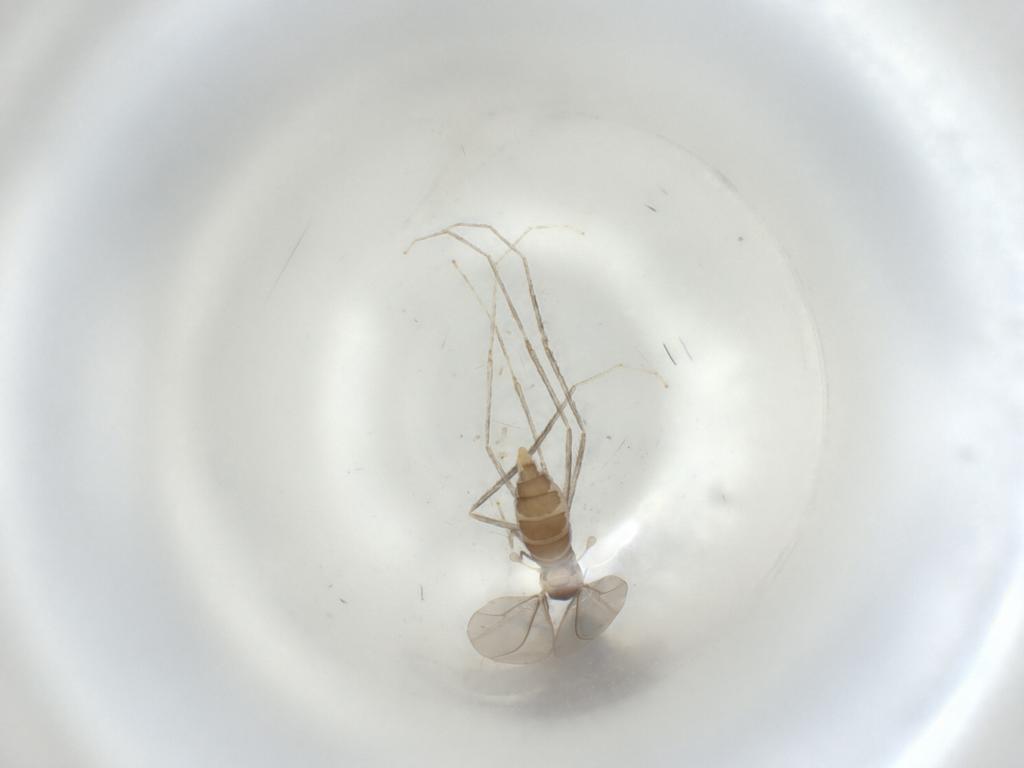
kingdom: Animalia
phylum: Arthropoda
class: Insecta
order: Diptera
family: Cecidomyiidae
